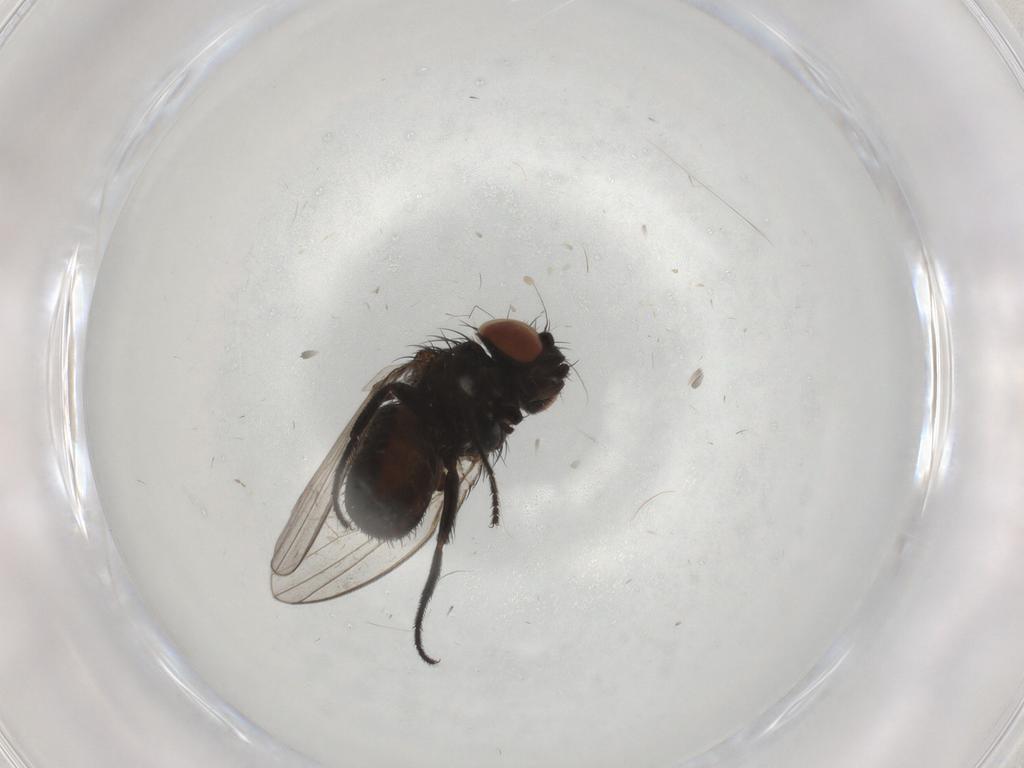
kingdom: Animalia
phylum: Arthropoda
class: Insecta
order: Diptera
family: Milichiidae
